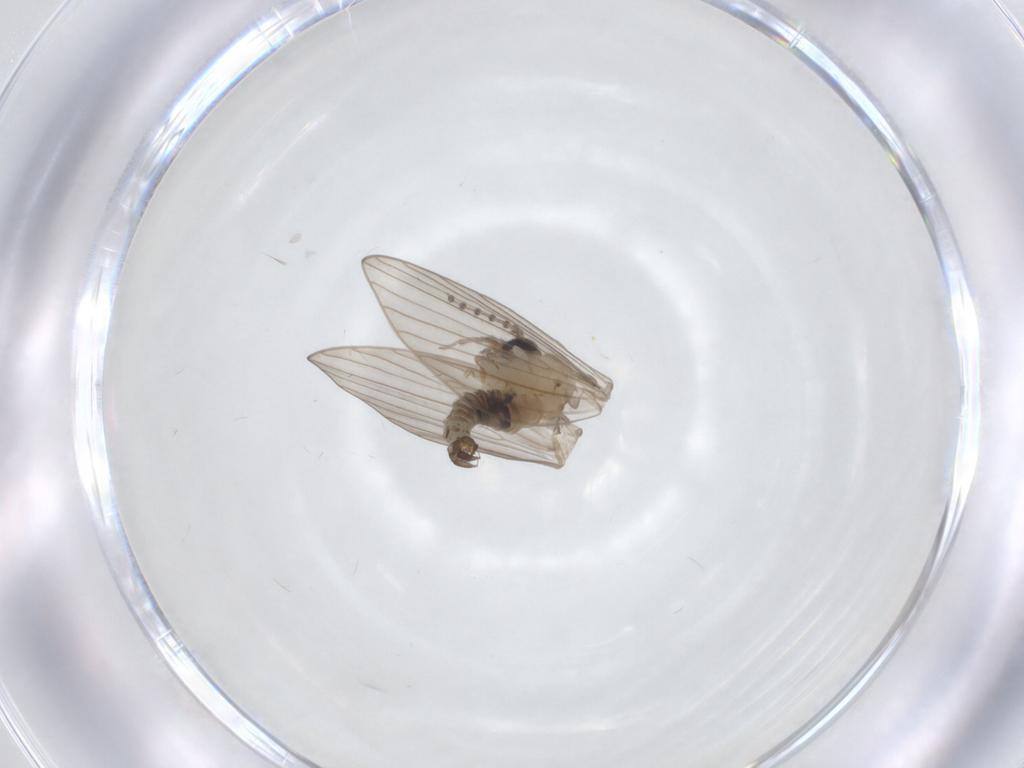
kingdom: Animalia
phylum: Arthropoda
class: Insecta
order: Diptera
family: Psychodidae
